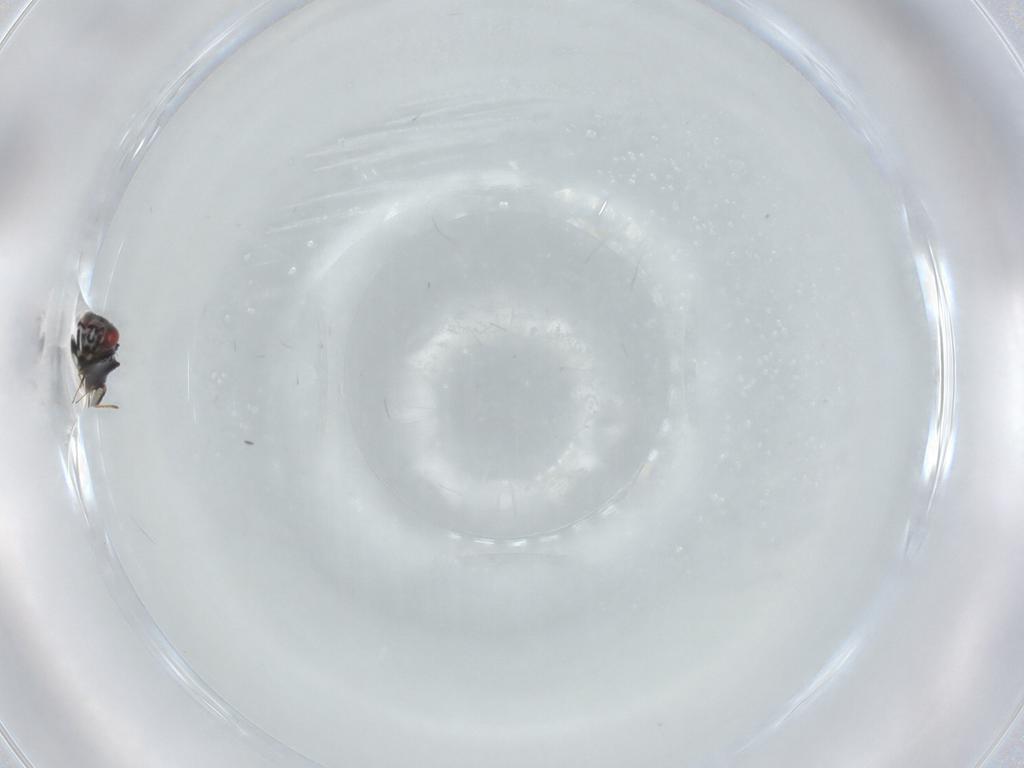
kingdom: Animalia
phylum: Arthropoda
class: Insecta
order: Hymenoptera
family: Azotidae
